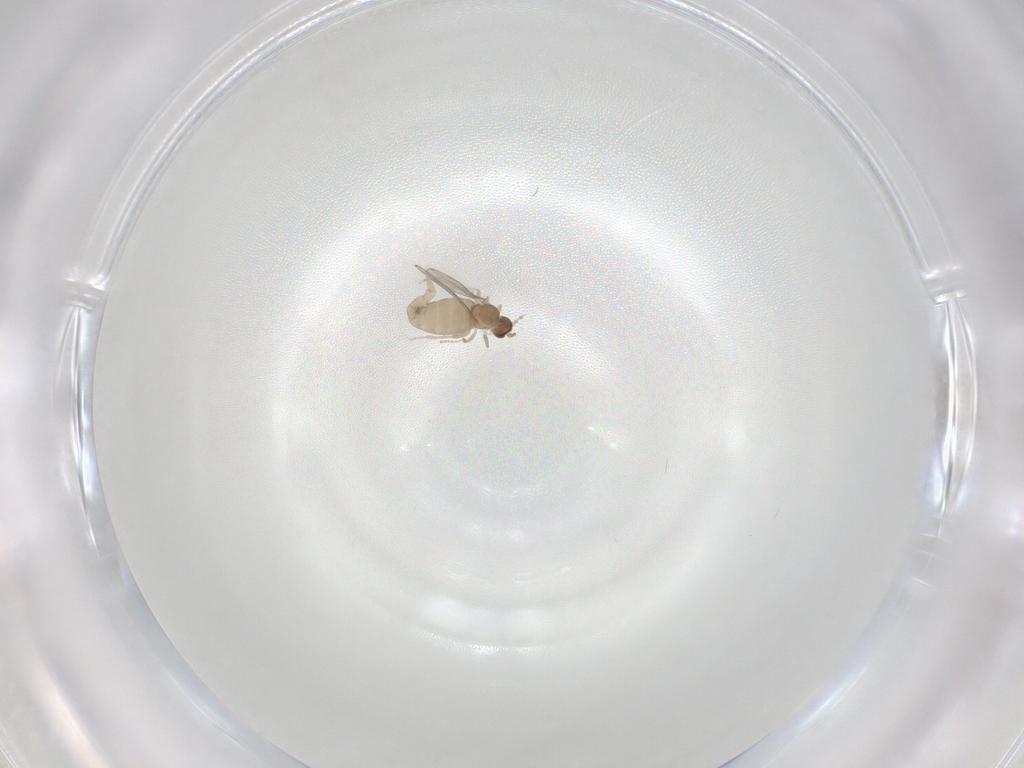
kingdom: Animalia
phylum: Arthropoda
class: Insecta
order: Diptera
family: Cecidomyiidae
